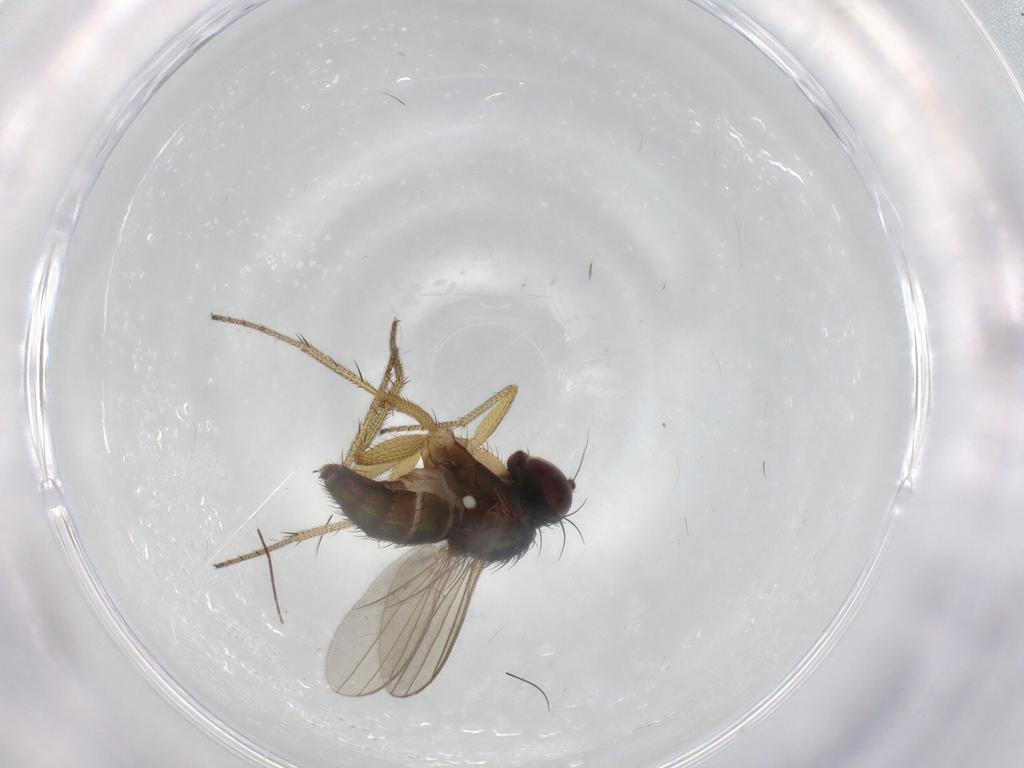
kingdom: Animalia
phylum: Arthropoda
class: Insecta
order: Diptera
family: Dolichopodidae
